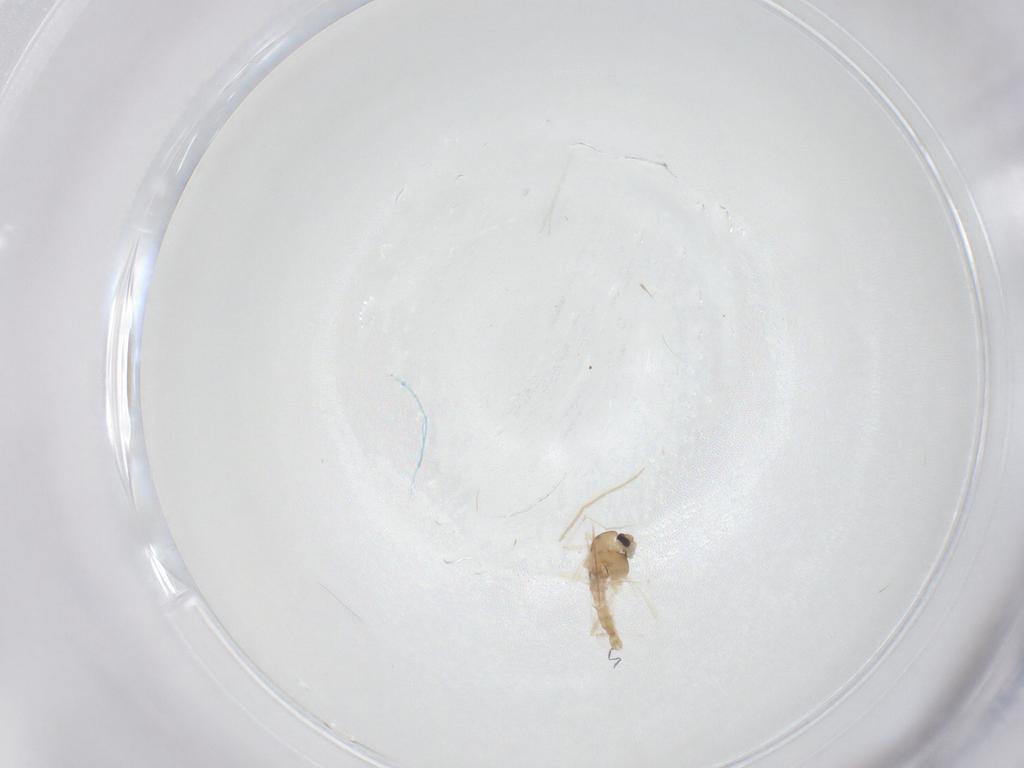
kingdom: Animalia
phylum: Arthropoda
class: Insecta
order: Diptera
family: Chironomidae
